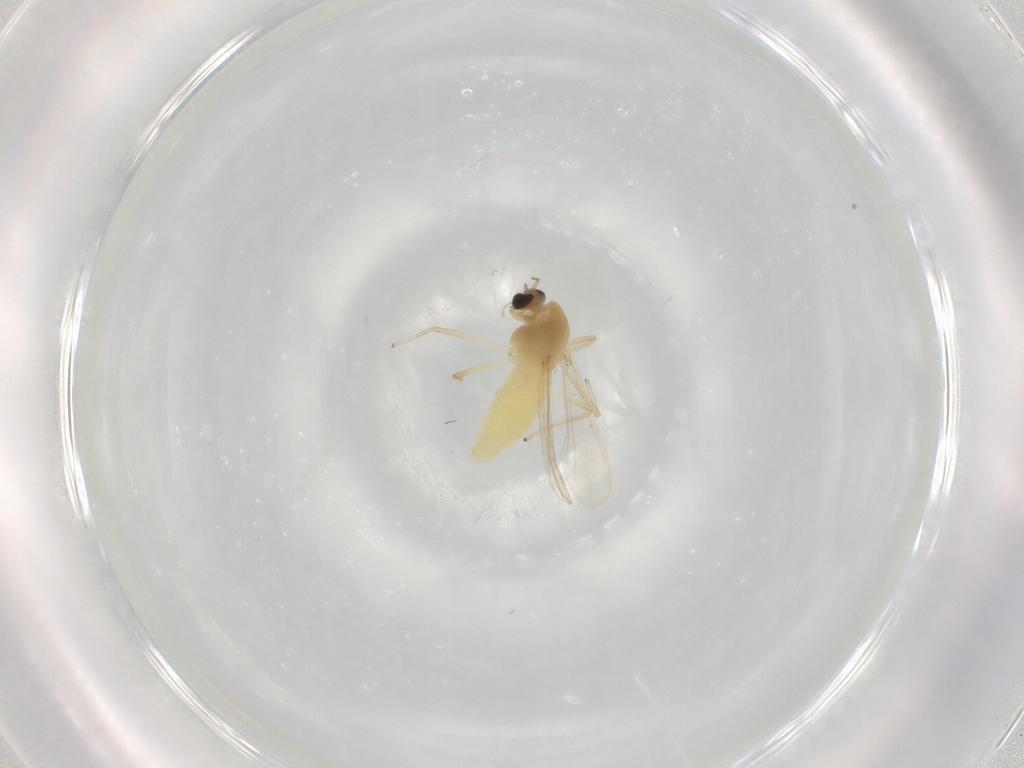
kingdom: Animalia
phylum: Arthropoda
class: Insecta
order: Diptera
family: Chironomidae
